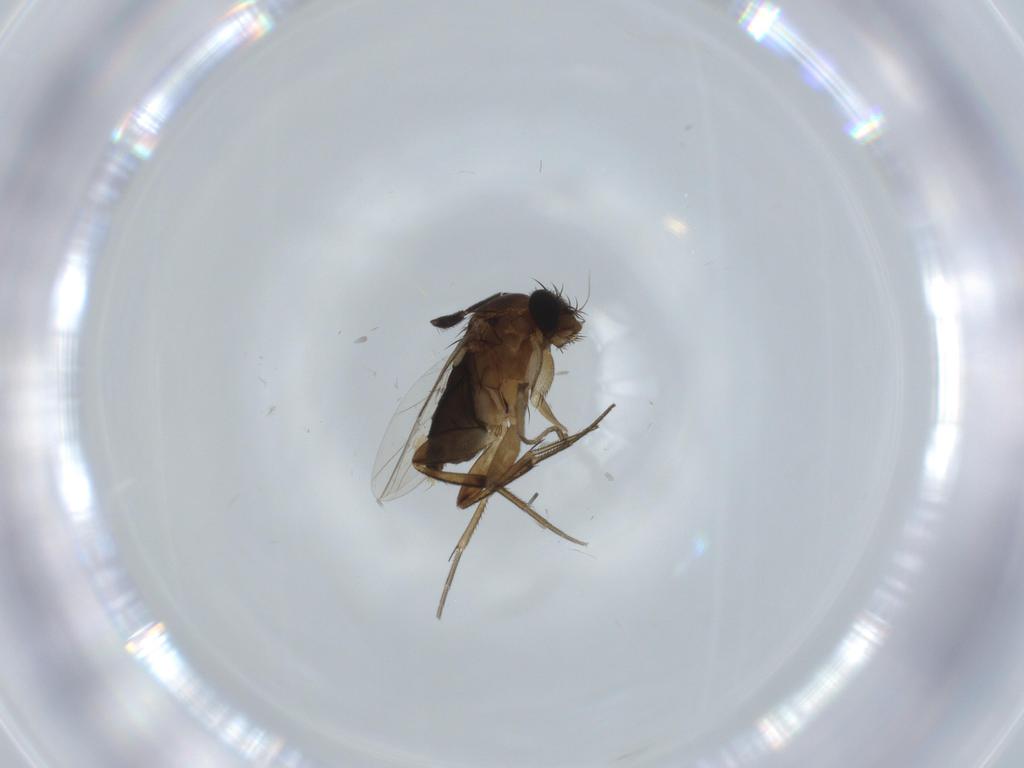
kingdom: Animalia
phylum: Arthropoda
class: Insecta
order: Diptera
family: Phoridae
